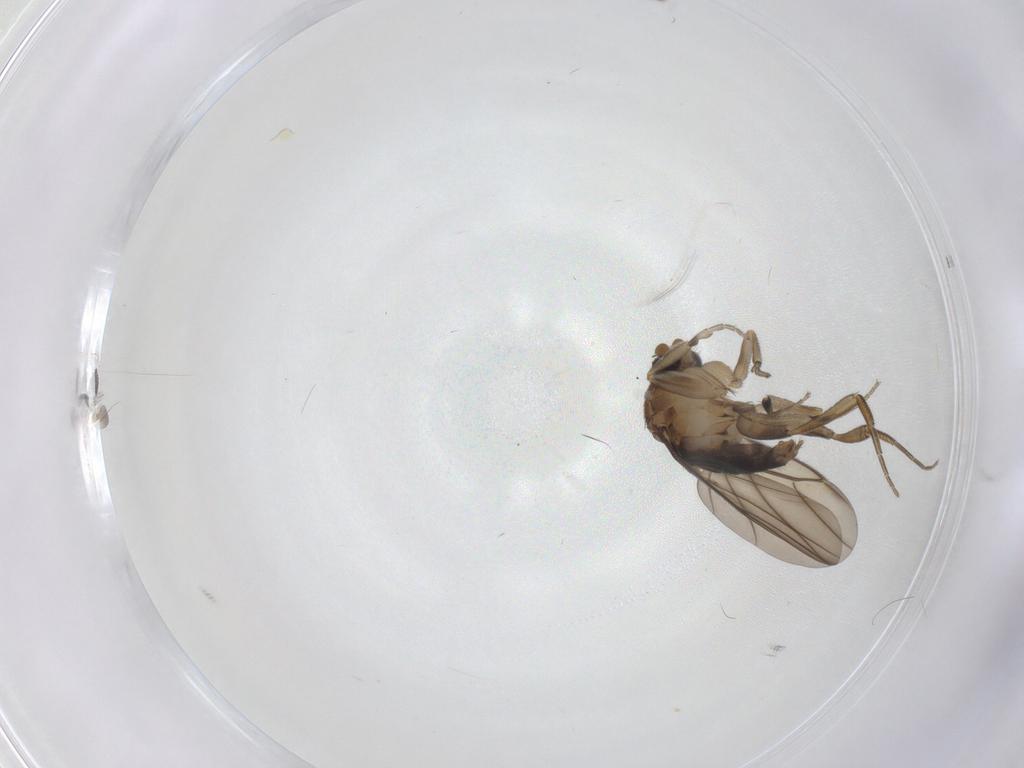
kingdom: Animalia
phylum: Arthropoda
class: Insecta
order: Diptera
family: Phoridae
